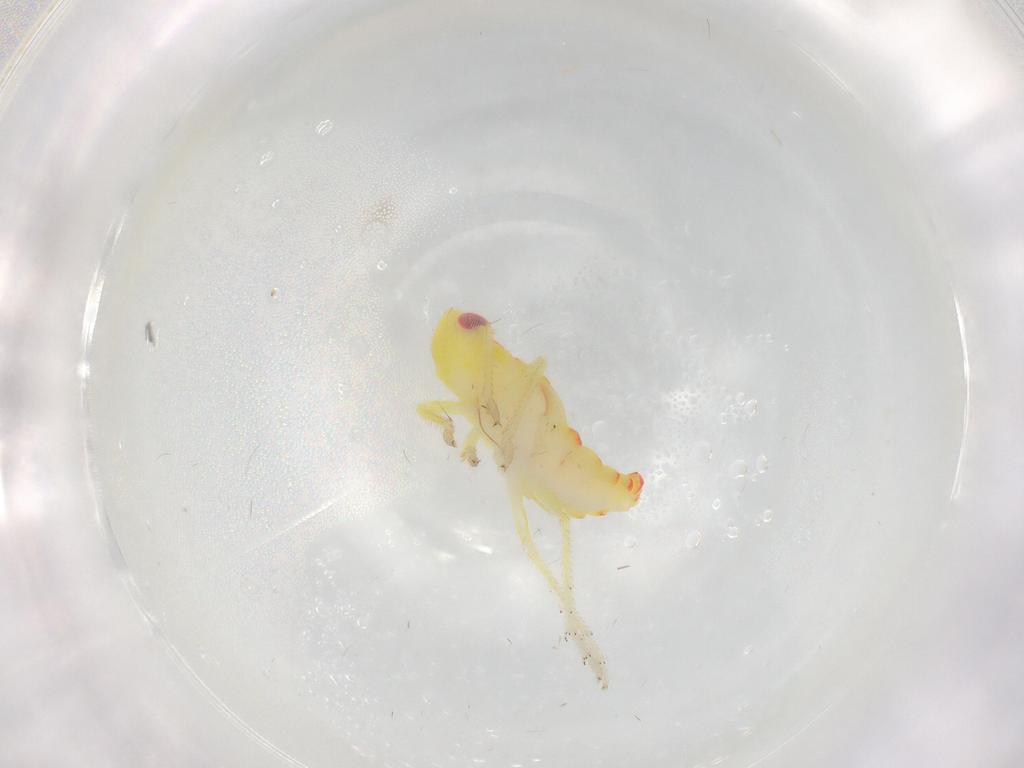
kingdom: Animalia
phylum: Arthropoda
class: Insecta
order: Hemiptera
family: Tropiduchidae
